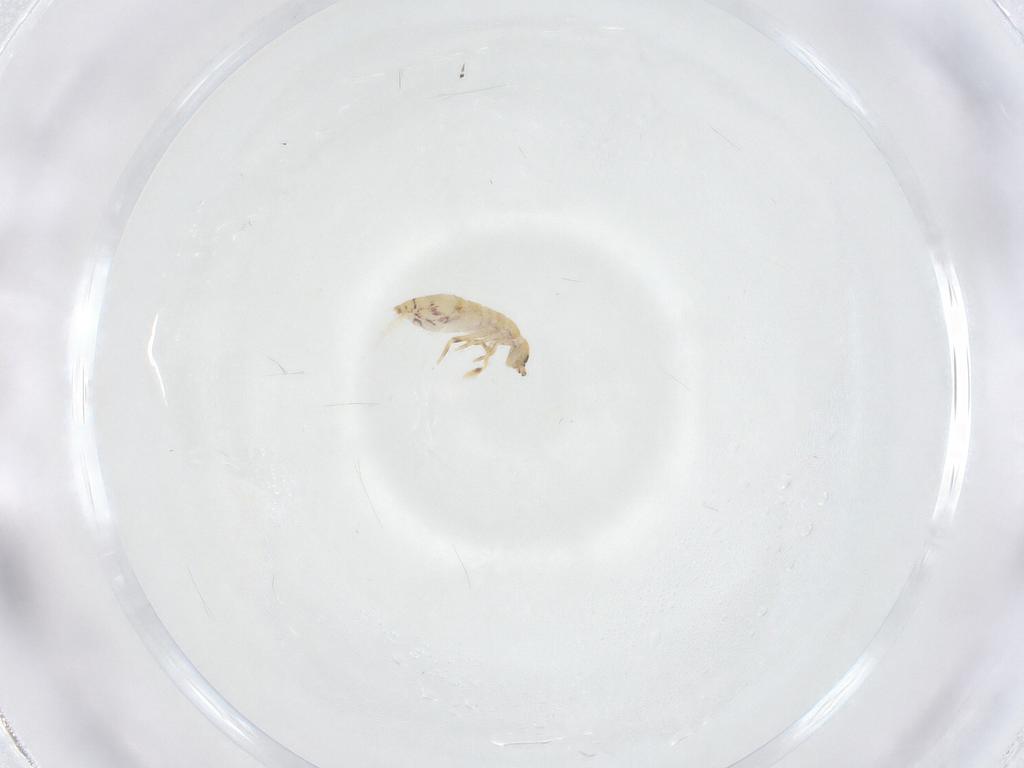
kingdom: Animalia
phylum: Arthropoda
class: Collembola
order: Entomobryomorpha
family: Entomobryidae
